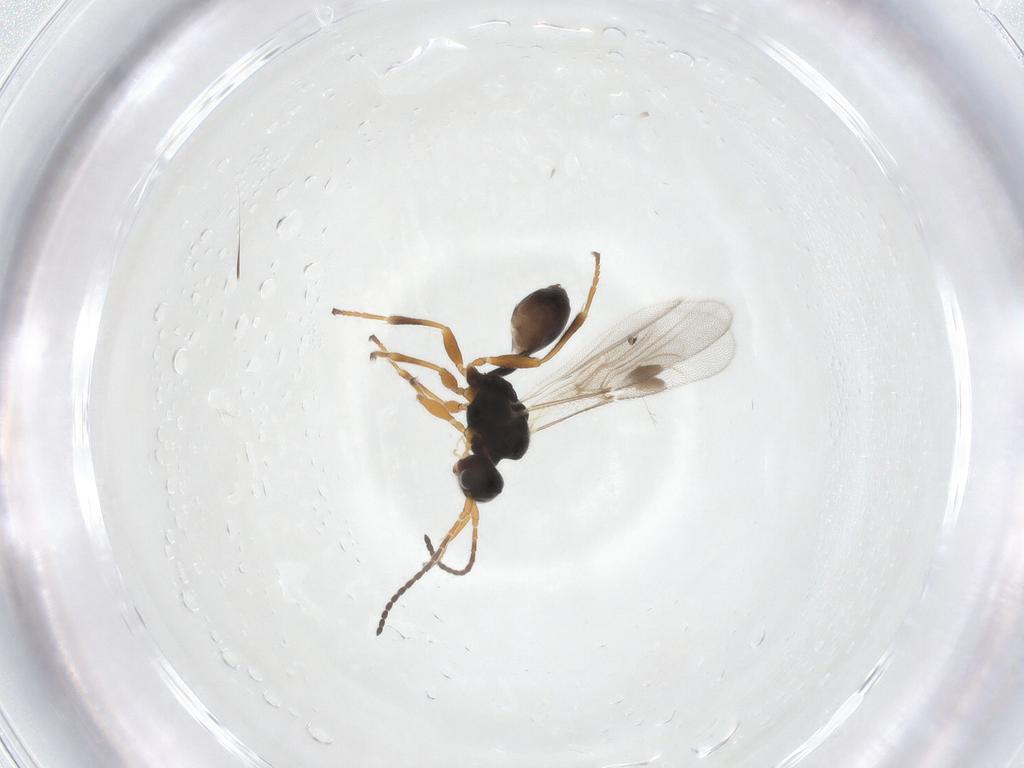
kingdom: Animalia
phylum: Arthropoda
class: Insecta
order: Hymenoptera
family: Braconidae
